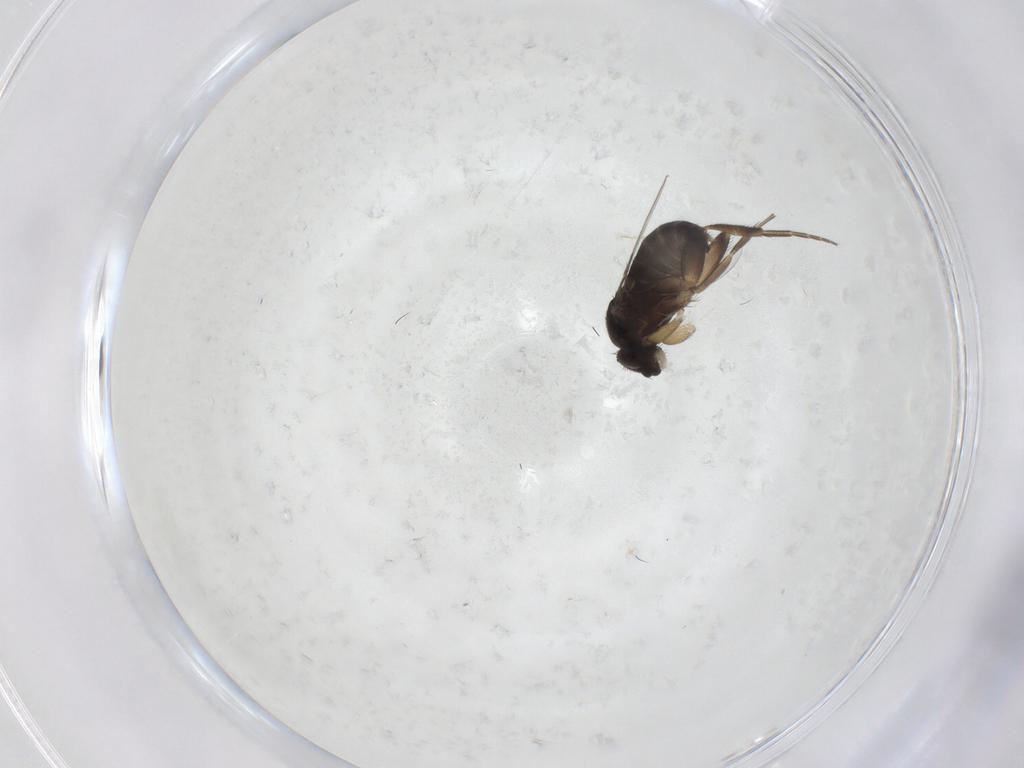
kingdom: Animalia
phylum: Arthropoda
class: Insecta
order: Diptera
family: Phoridae
